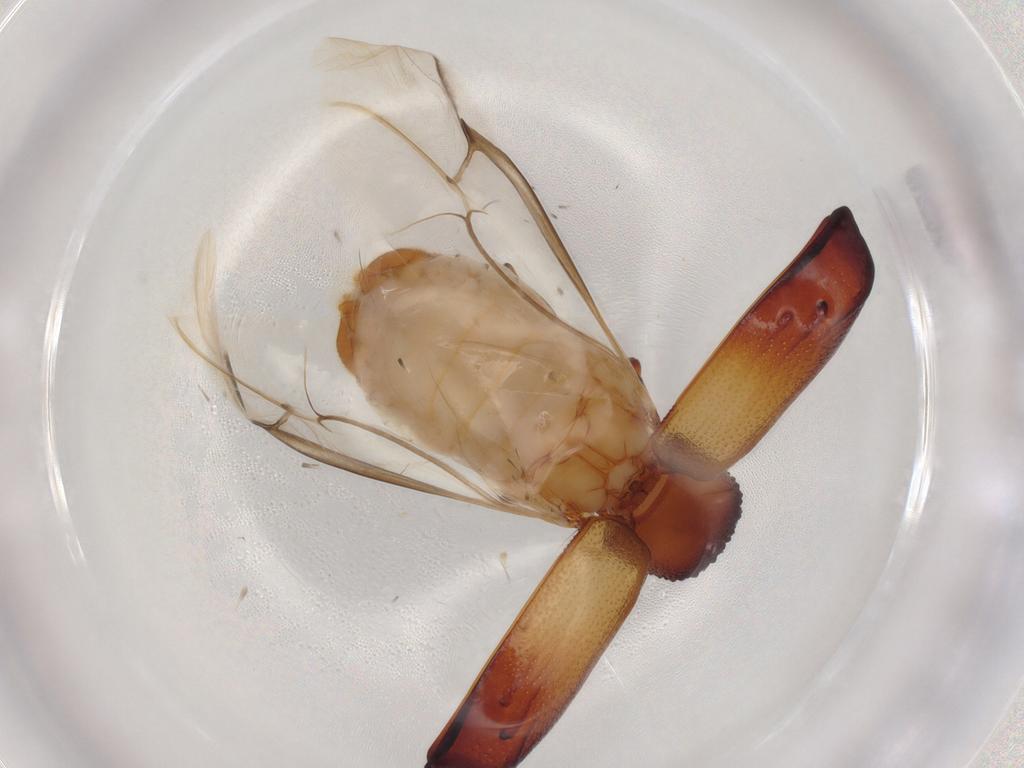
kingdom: Animalia
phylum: Arthropoda
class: Insecta
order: Coleoptera
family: Bostrichidae
